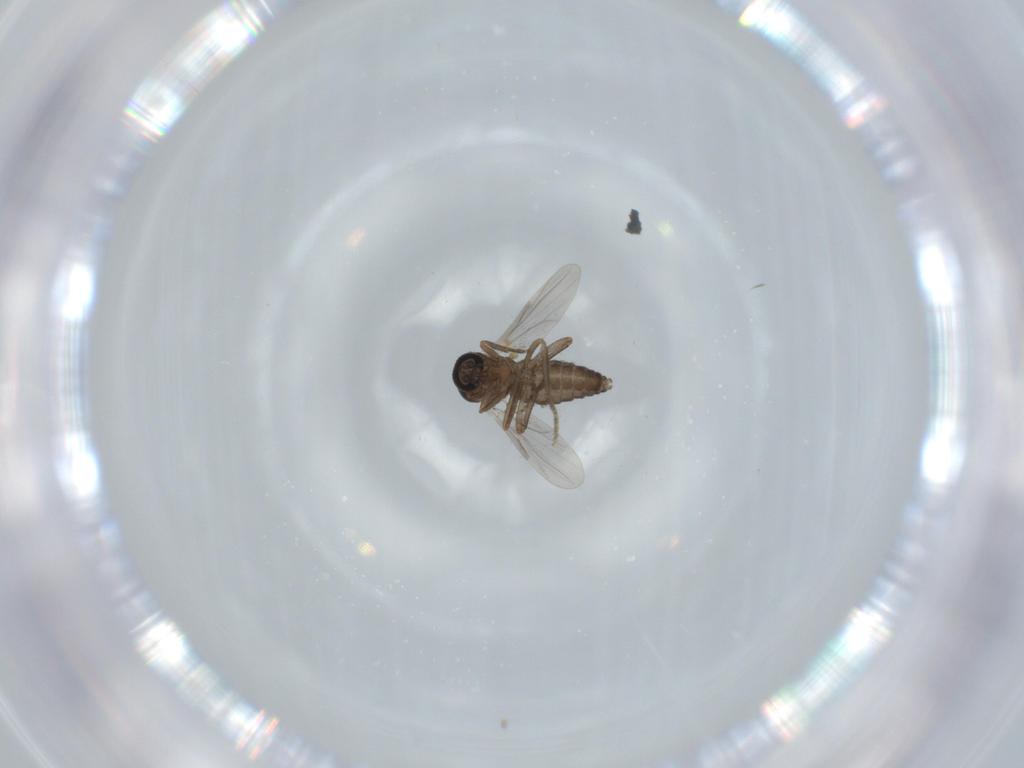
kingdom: Animalia
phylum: Arthropoda
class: Insecta
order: Diptera
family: Ceratopogonidae
